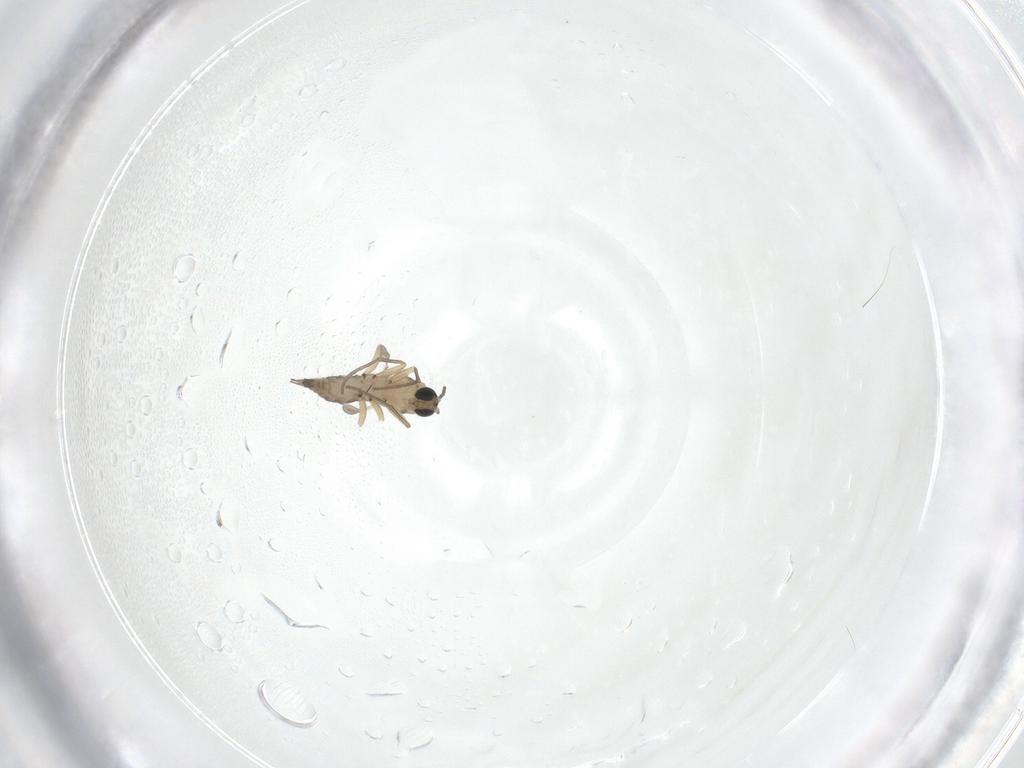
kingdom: Animalia
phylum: Arthropoda
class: Insecta
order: Diptera
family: Sciaridae
